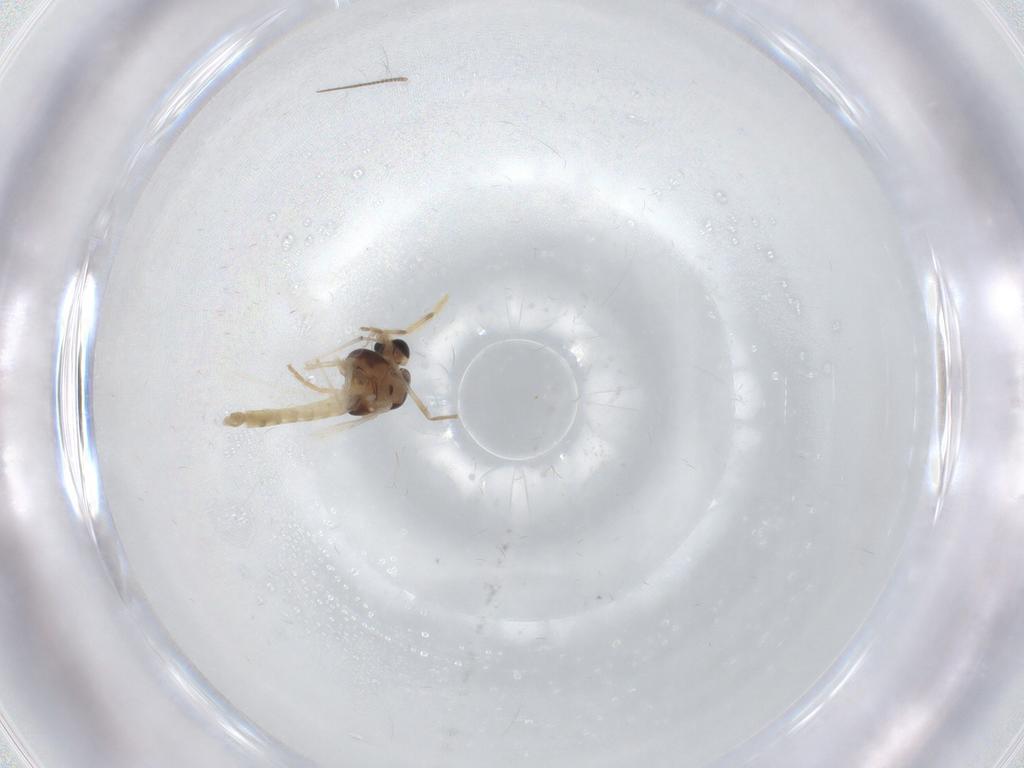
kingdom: Animalia
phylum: Arthropoda
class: Insecta
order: Diptera
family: Chironomidae
